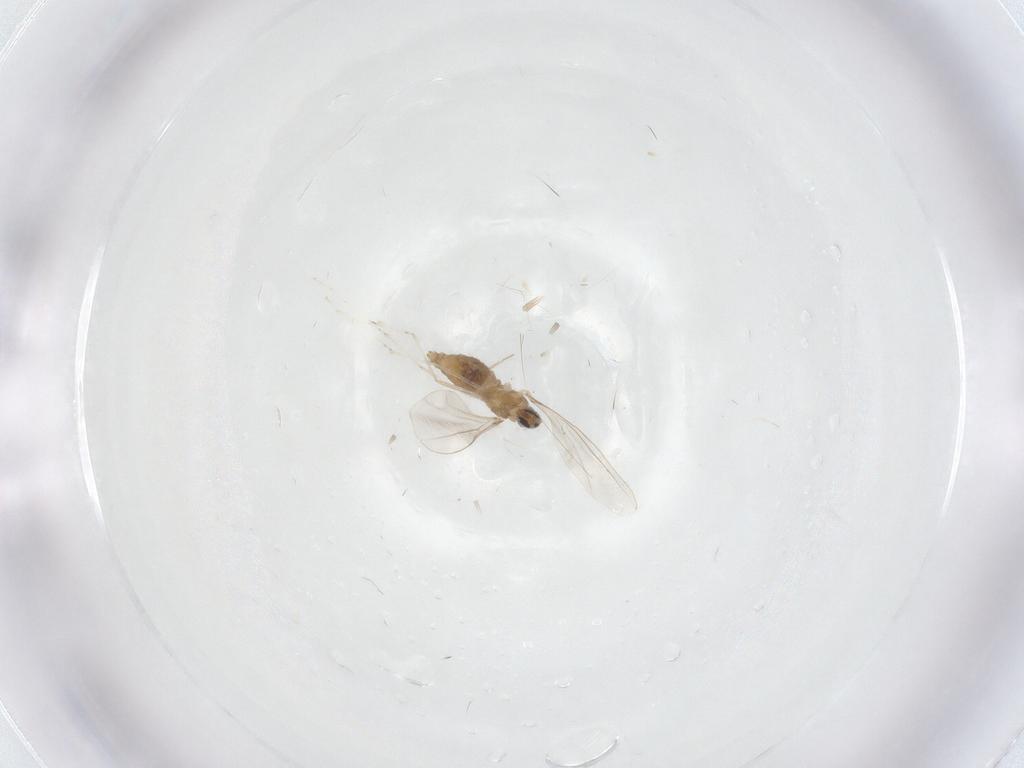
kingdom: Animalia
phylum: Arthropoda
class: Insecta
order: Diptera
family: Cecidomyiidae
